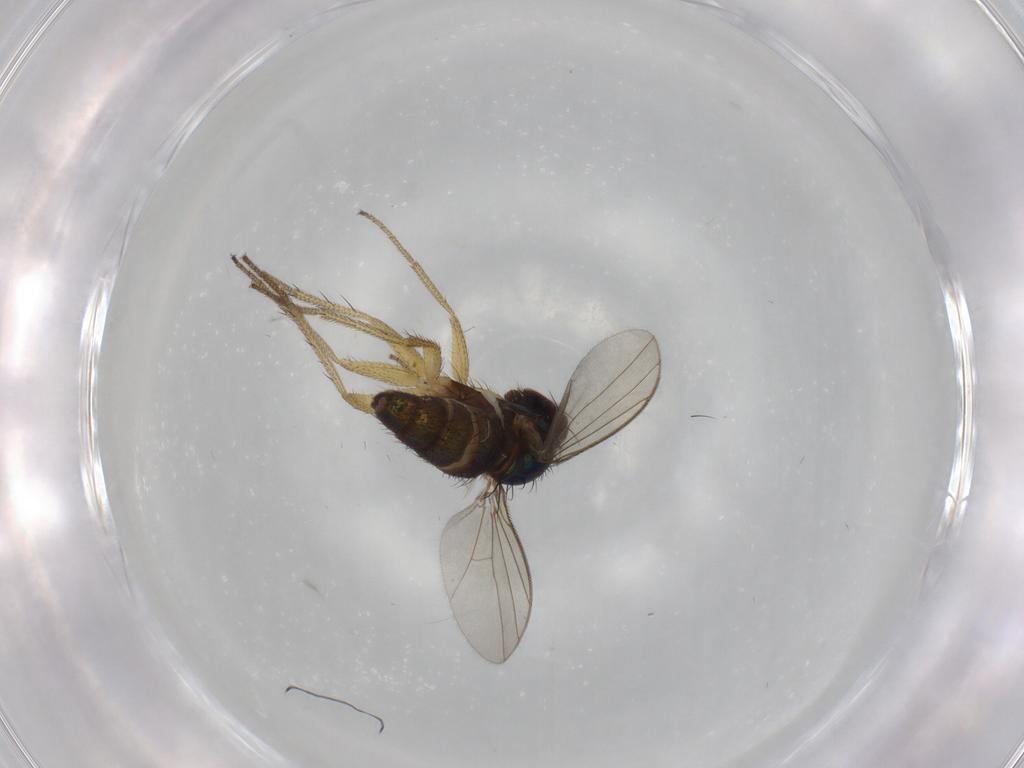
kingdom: Animalia
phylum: Arthropoda
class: Insecta
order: Diptera
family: Dolichopodidae
